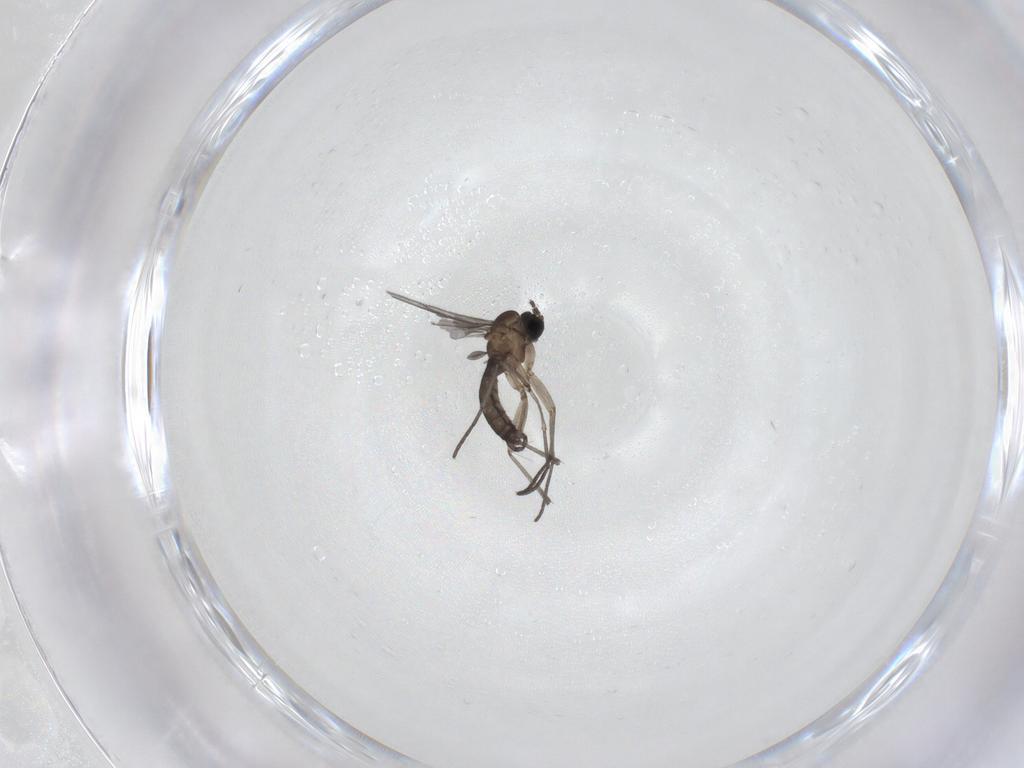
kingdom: Animalia
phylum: Arthropoda
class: Insecta
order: Diptera
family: Sciaridae
